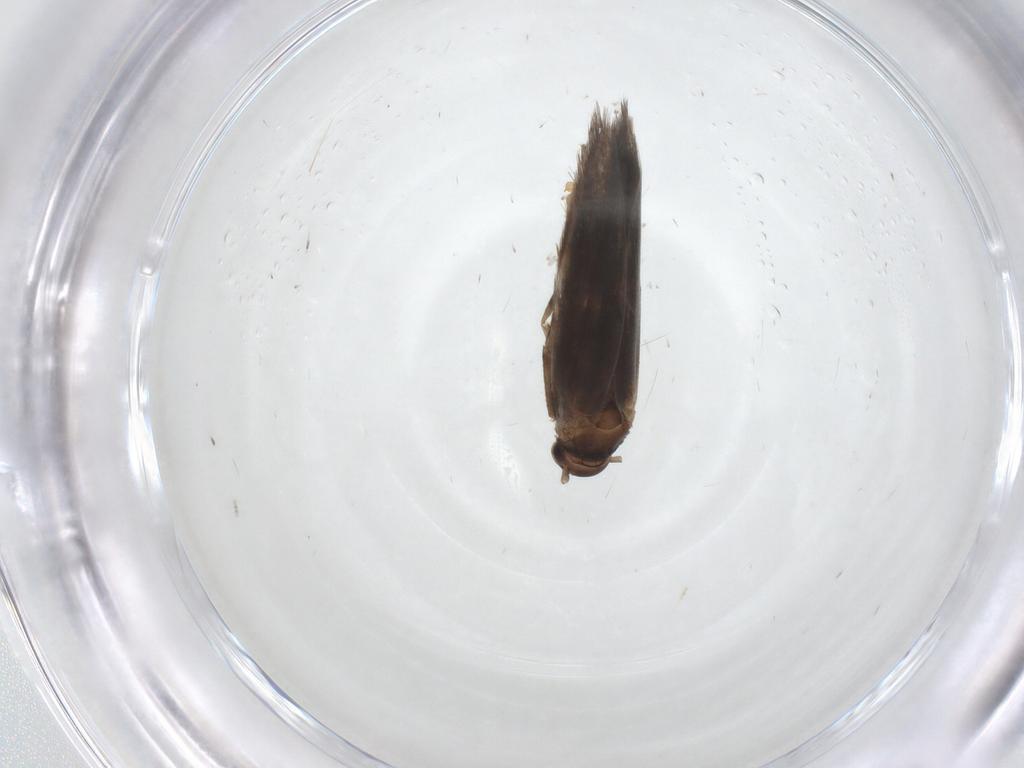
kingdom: Animalia
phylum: Arthropoda
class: Insecta
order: Lepidoptera
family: Elachistidae
